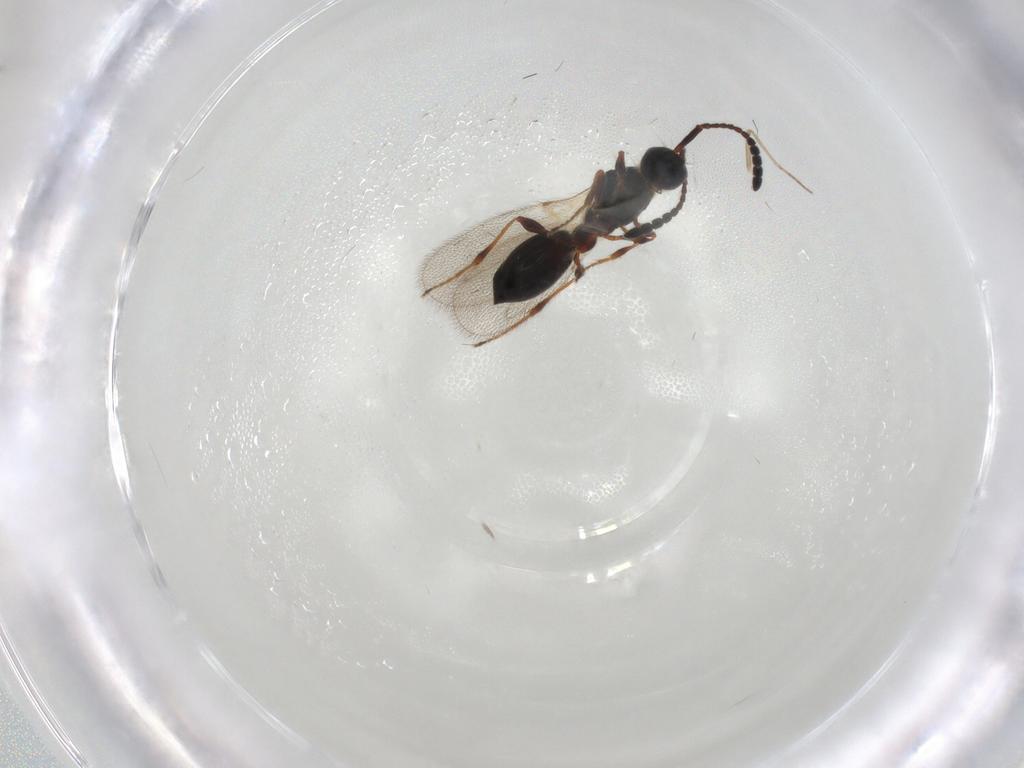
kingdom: Animalia
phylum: Arthropoda
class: Insecta
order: Hymenoptera
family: Diapriidae
